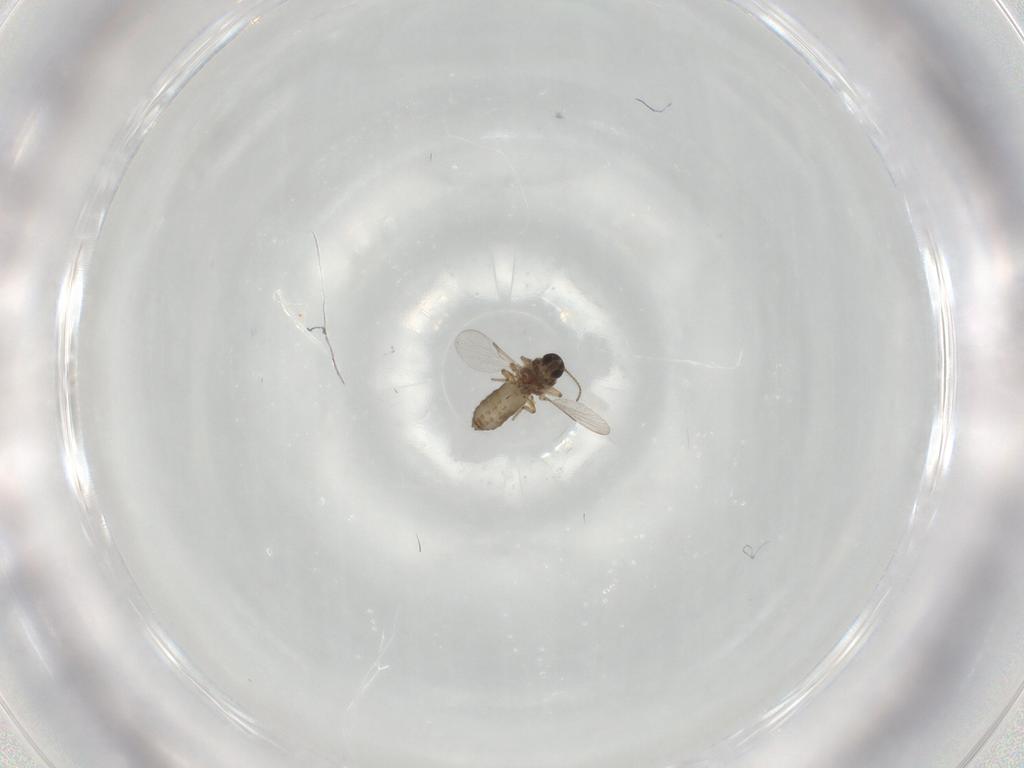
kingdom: Animalia
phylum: Arthropoda
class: Insecta
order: Diptera
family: Ceratopogonidae
